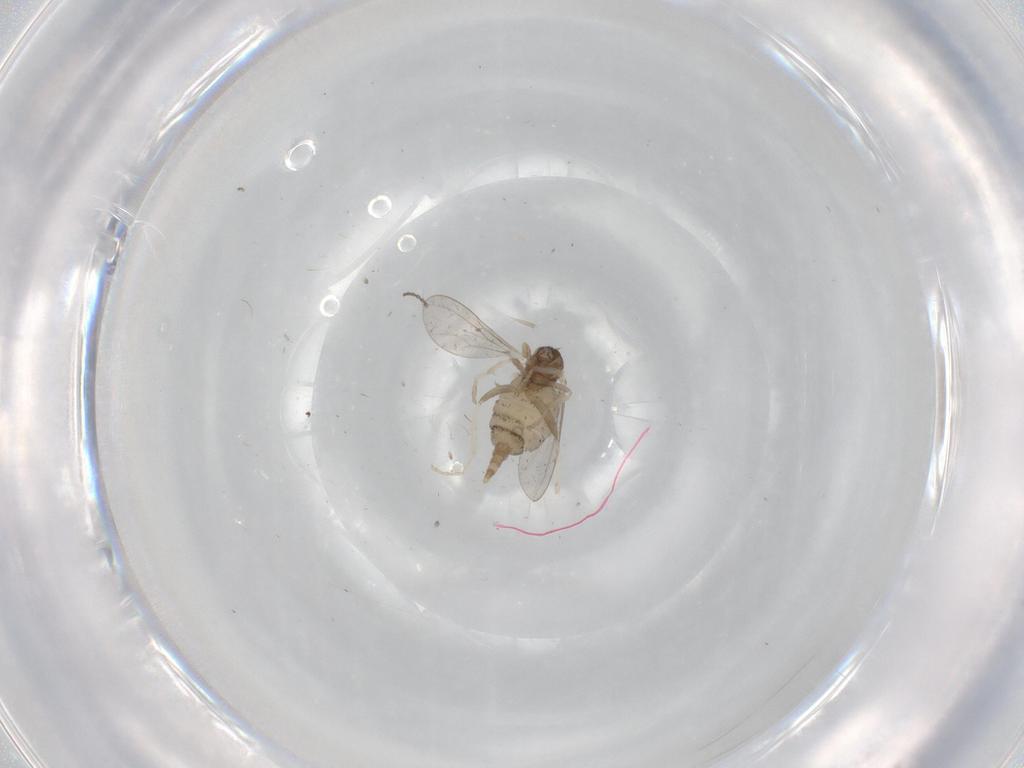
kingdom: Animalia
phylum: Arthropoda
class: Insecta
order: Diptera
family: Cecidomyiidae
